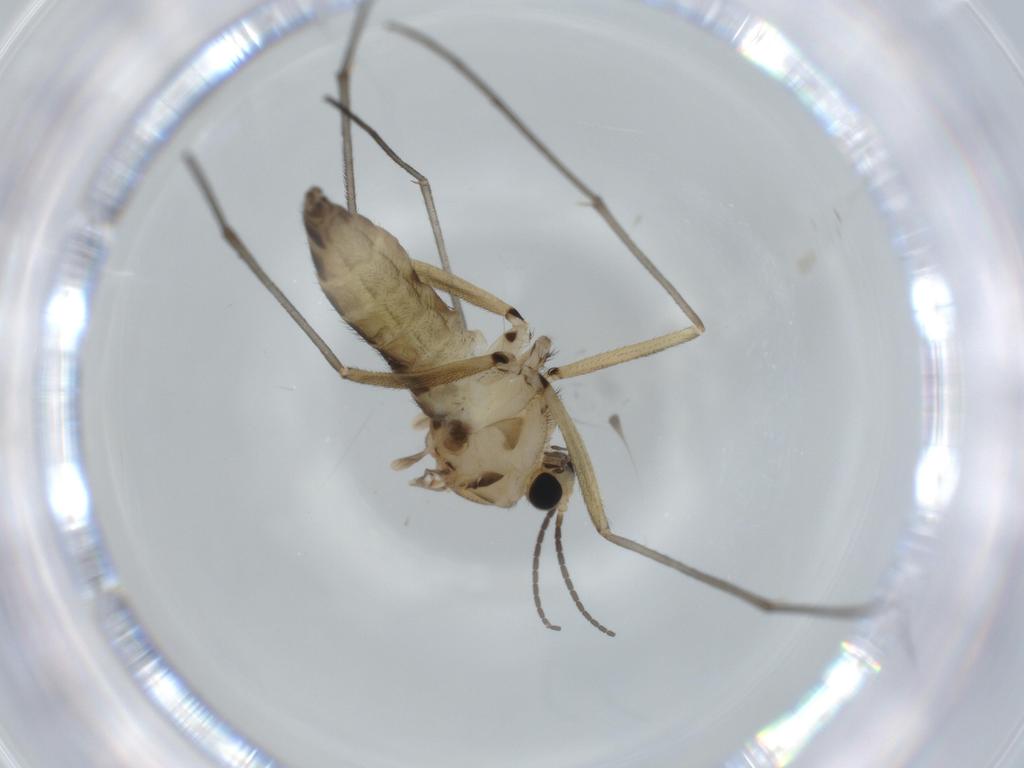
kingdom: Animalia
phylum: Arthropoda
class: Insecta
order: Diptera
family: Sciaridae
